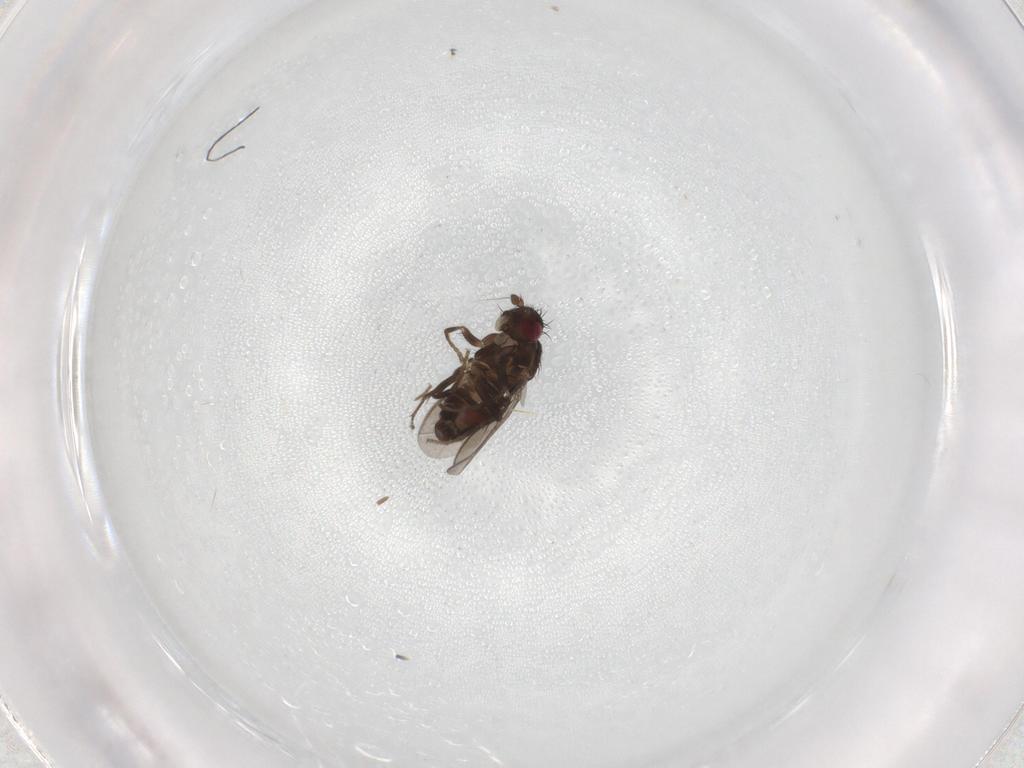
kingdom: Animalia
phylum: Arthropoda
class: Insecta
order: Diptera
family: Sphaeroceridae
